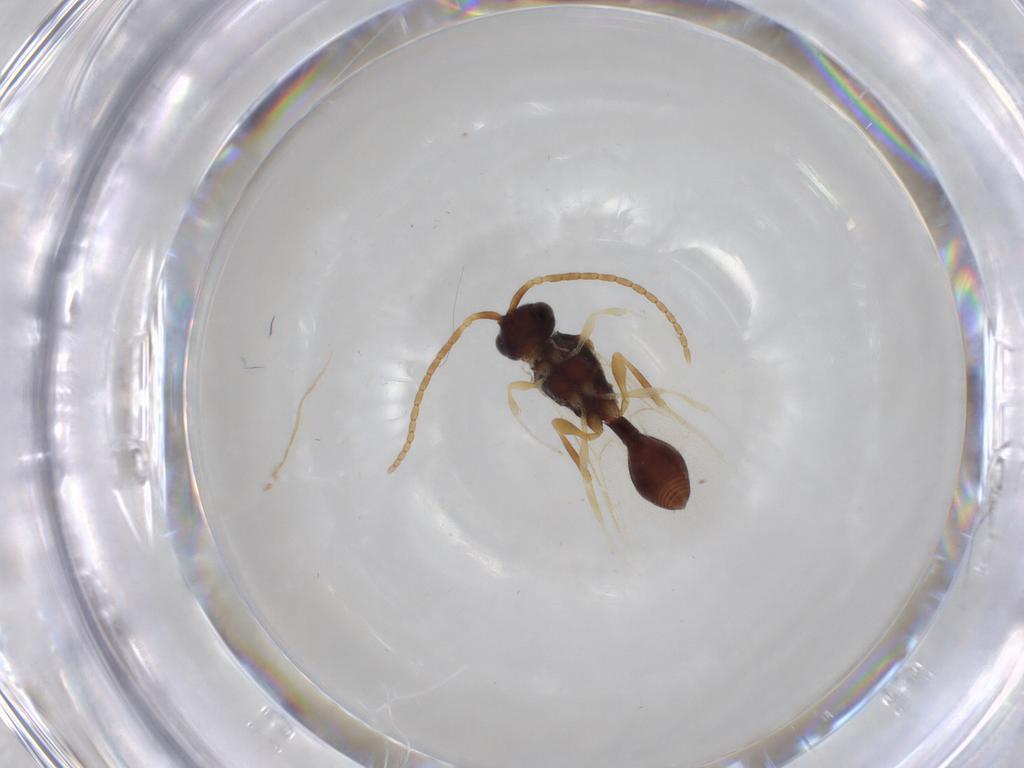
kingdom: Animalia
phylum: Arthropoda
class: Insecta
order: Hymenoptera
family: Diapriidae
